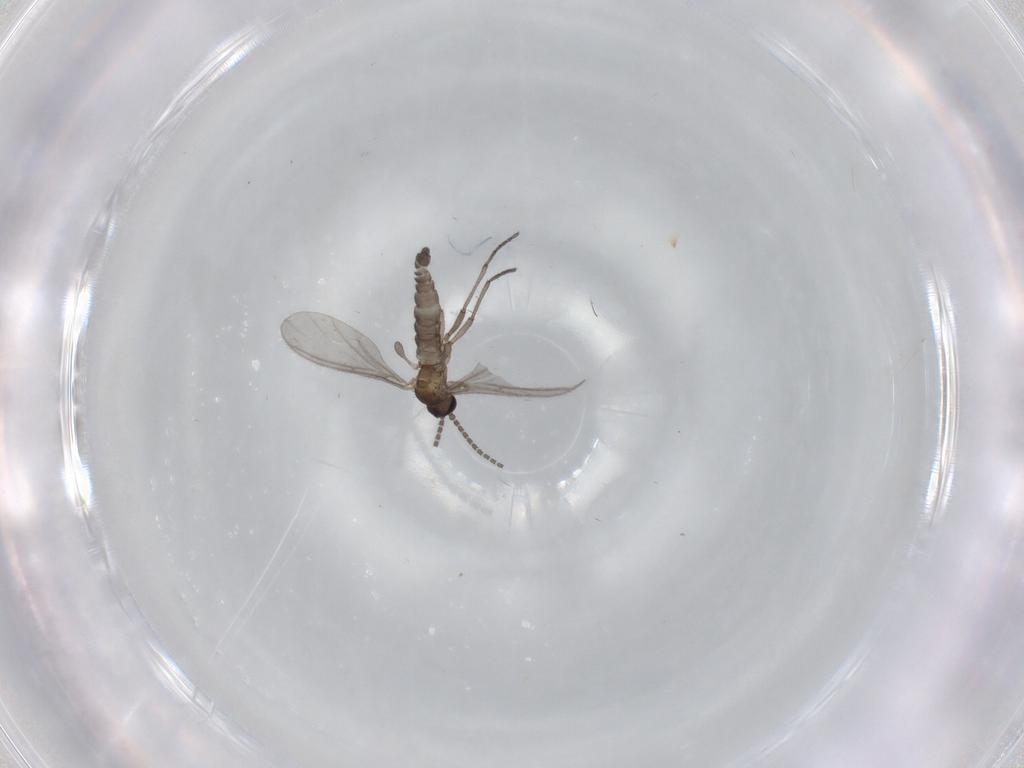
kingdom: Animalia
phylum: Arthropoda
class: Insecta
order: Diptera
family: Sciaridae
